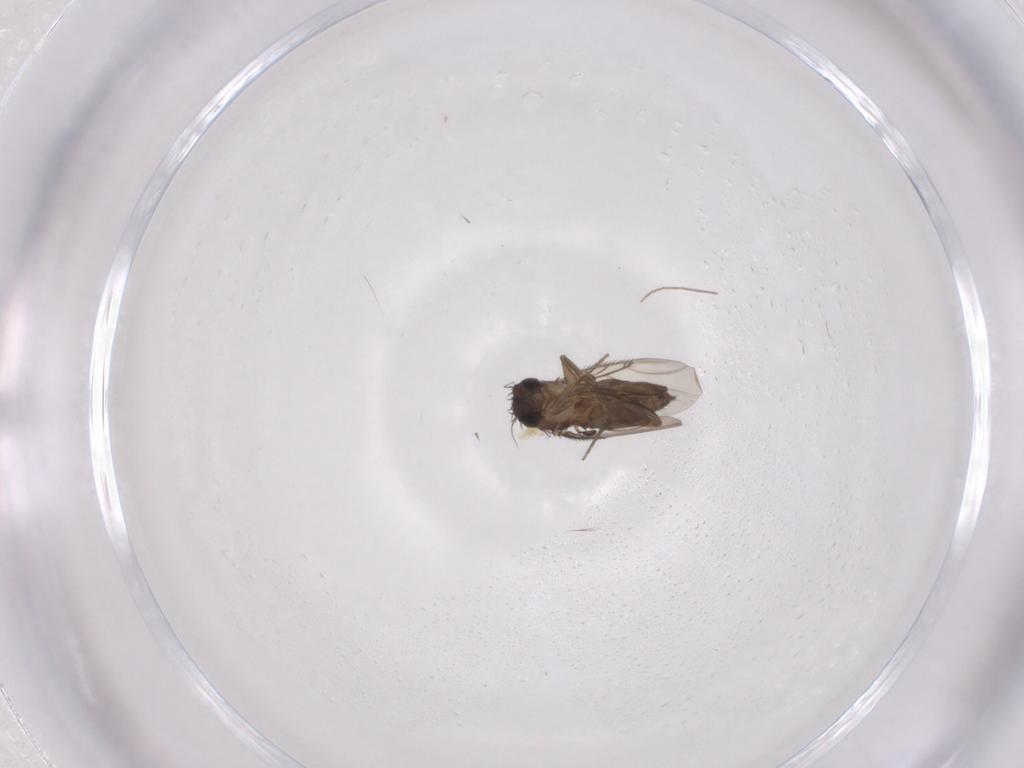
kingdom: Animalia
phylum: Arthropoda
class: Insecta
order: Diptera
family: Phoridae
